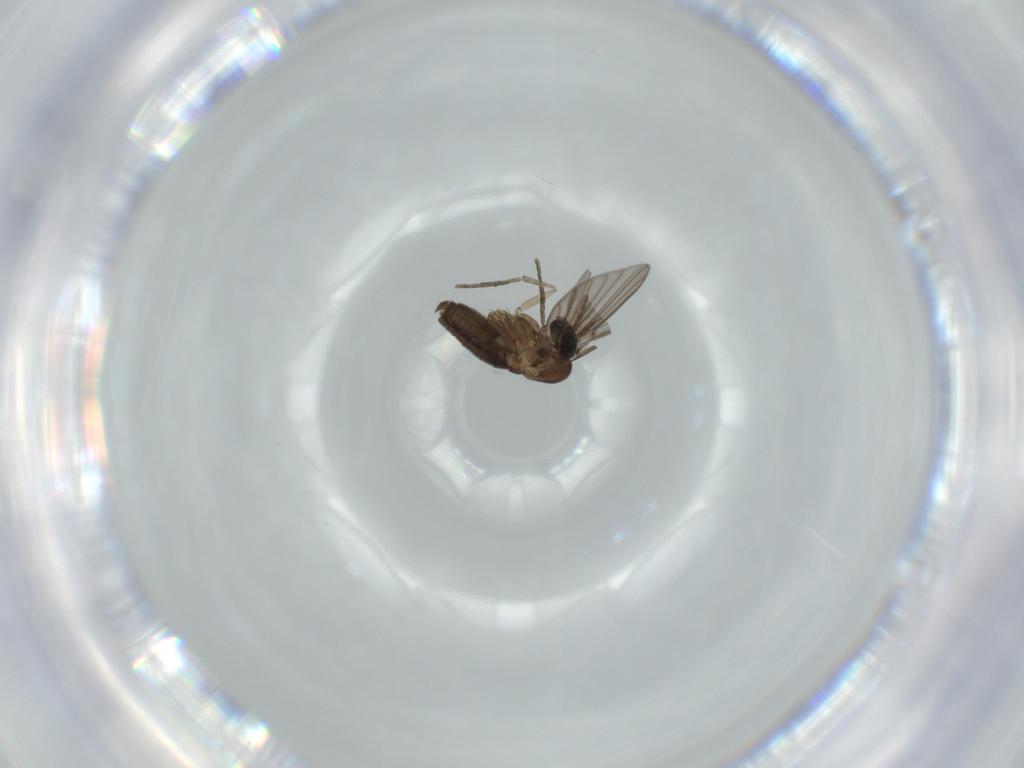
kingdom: Animalia
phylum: Arthropoda
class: Insecta
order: Diptera
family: Psychodidae
